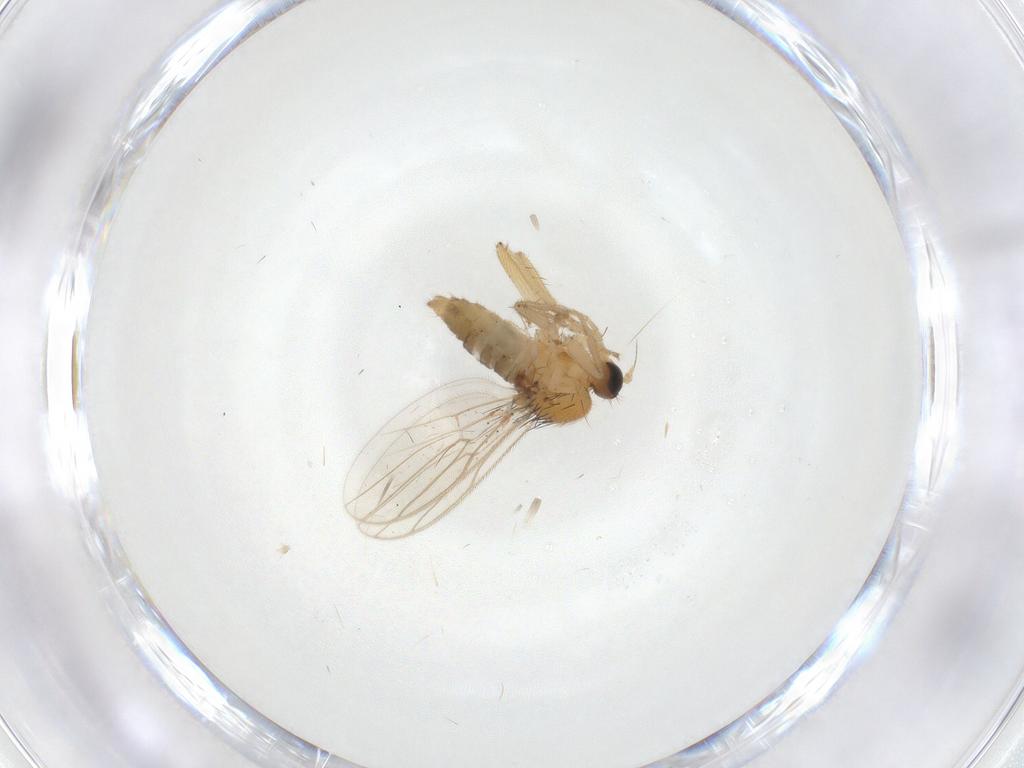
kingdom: Animalia
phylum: Arthropoda
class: Insecta
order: Diptera
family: Hybotidae
